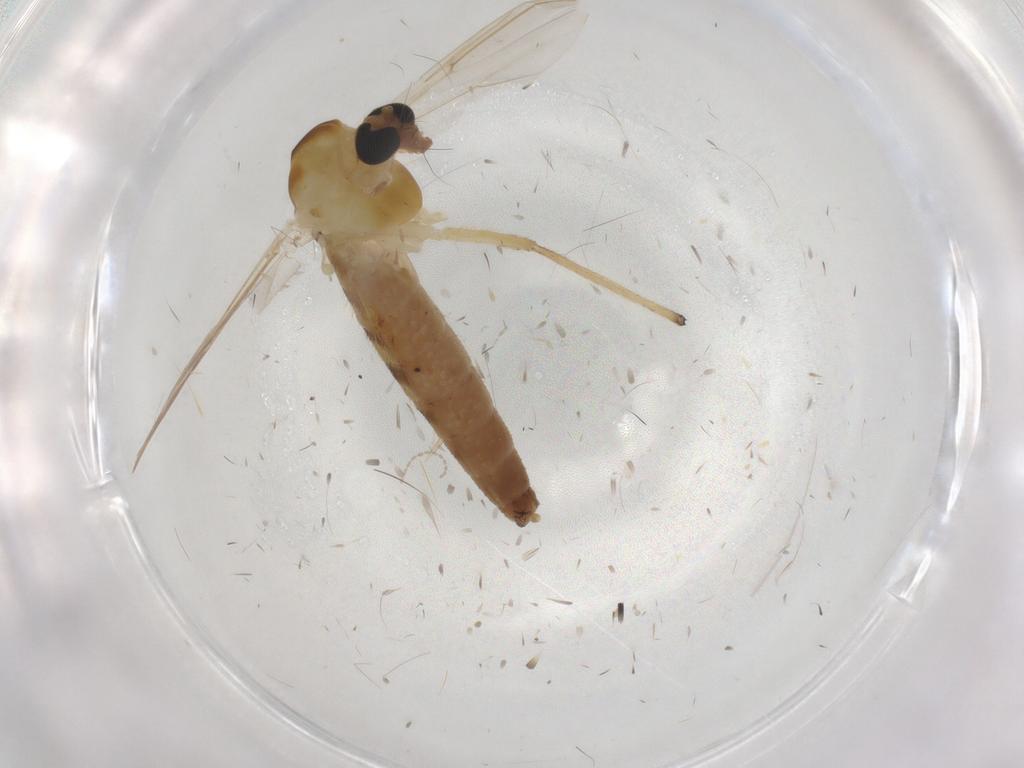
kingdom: Animalia
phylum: Arthropoda
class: Insecta
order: Diptera
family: Chironomidae
